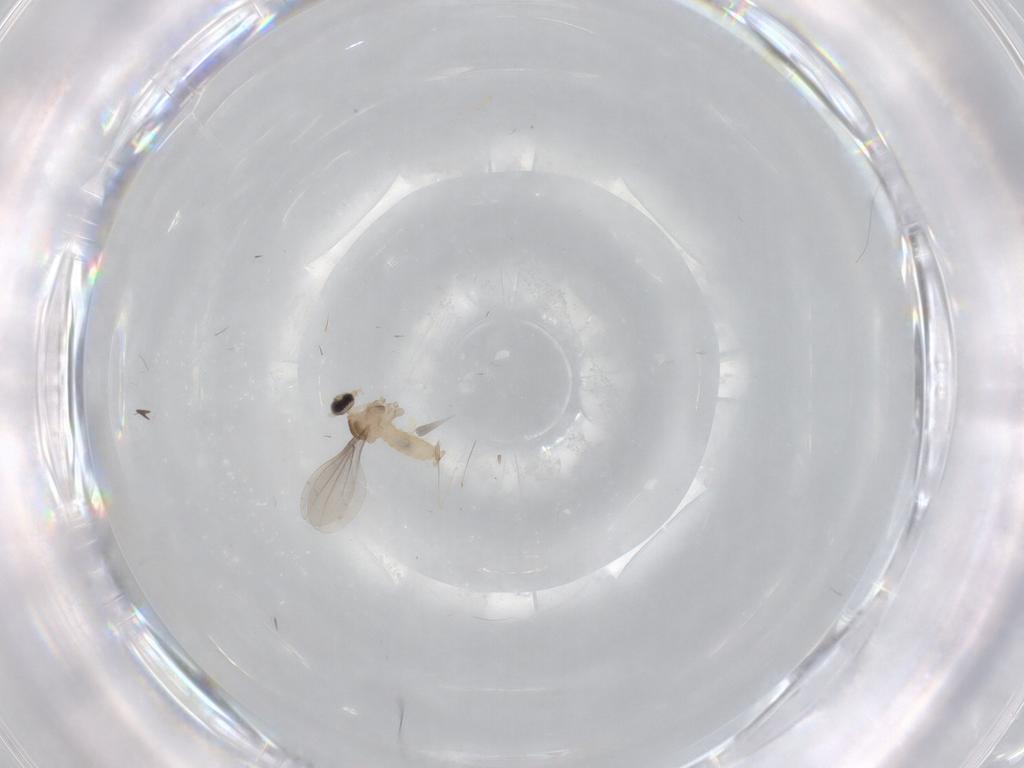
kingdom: Animalia
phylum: Arthropoda
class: Insecta
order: Diptera
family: Cecidomyiidae
